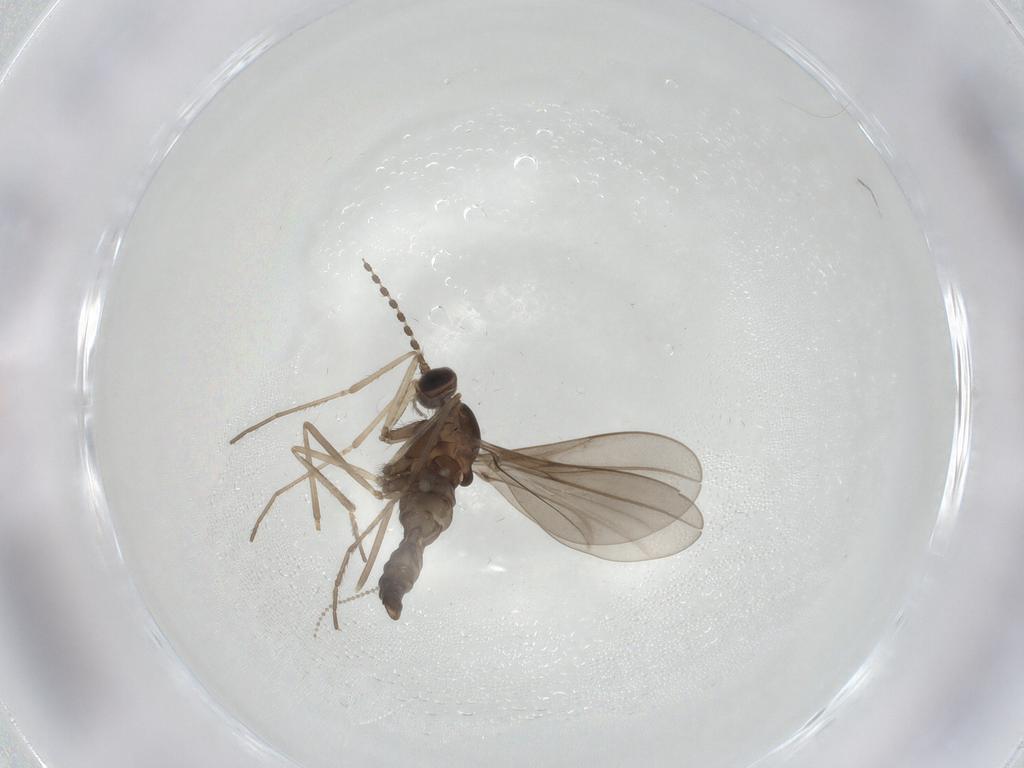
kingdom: Animalia
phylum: Arthropoda
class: Insecta
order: Diptera
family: Cecidomyiidae
